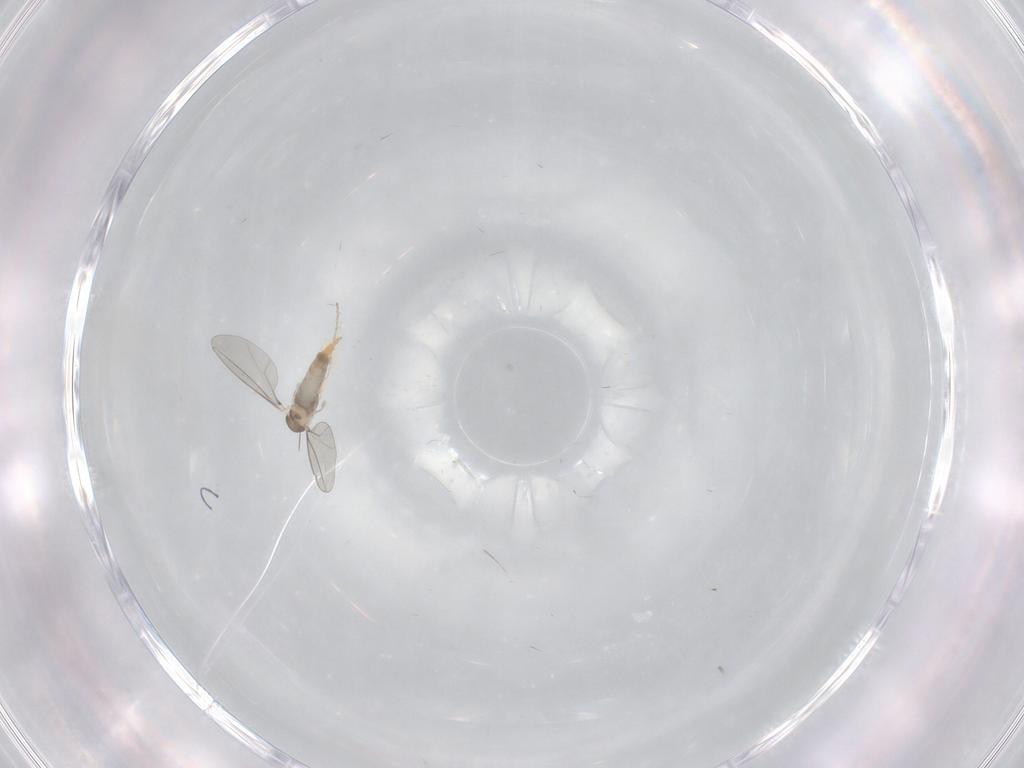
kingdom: Animalia
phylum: Arthropoda
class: Insecta
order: Diptera
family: Cecidomyiidae
